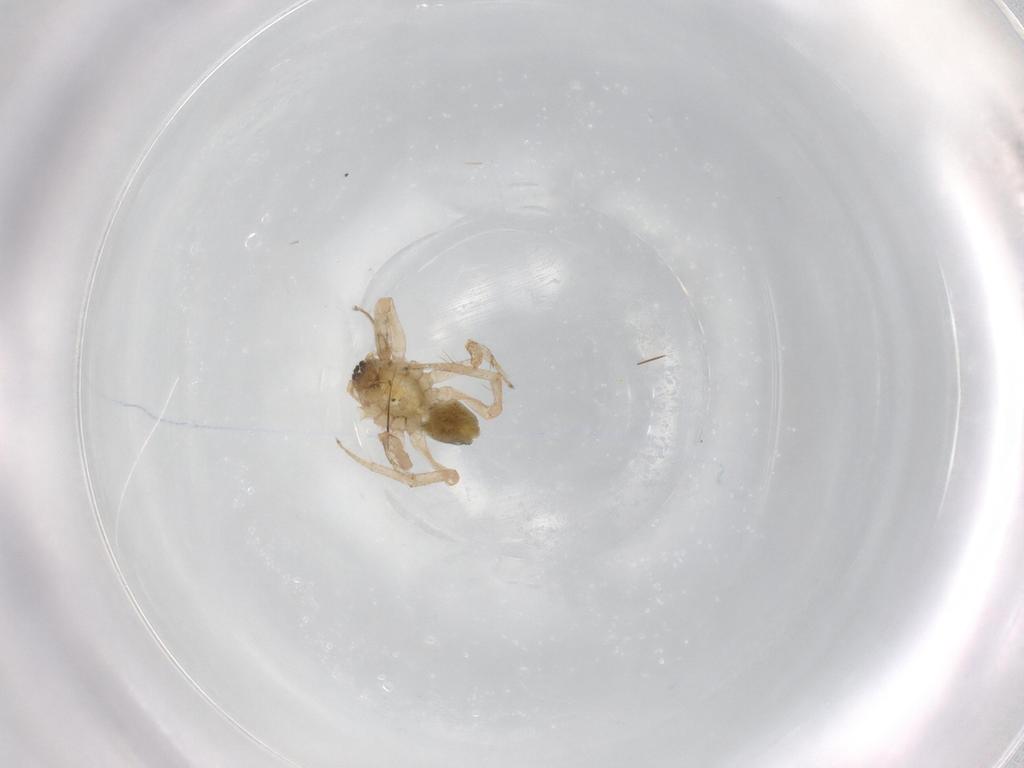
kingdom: Animalia
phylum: Arthropoda
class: Arachnida
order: Araneae
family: Anyphaenidae
